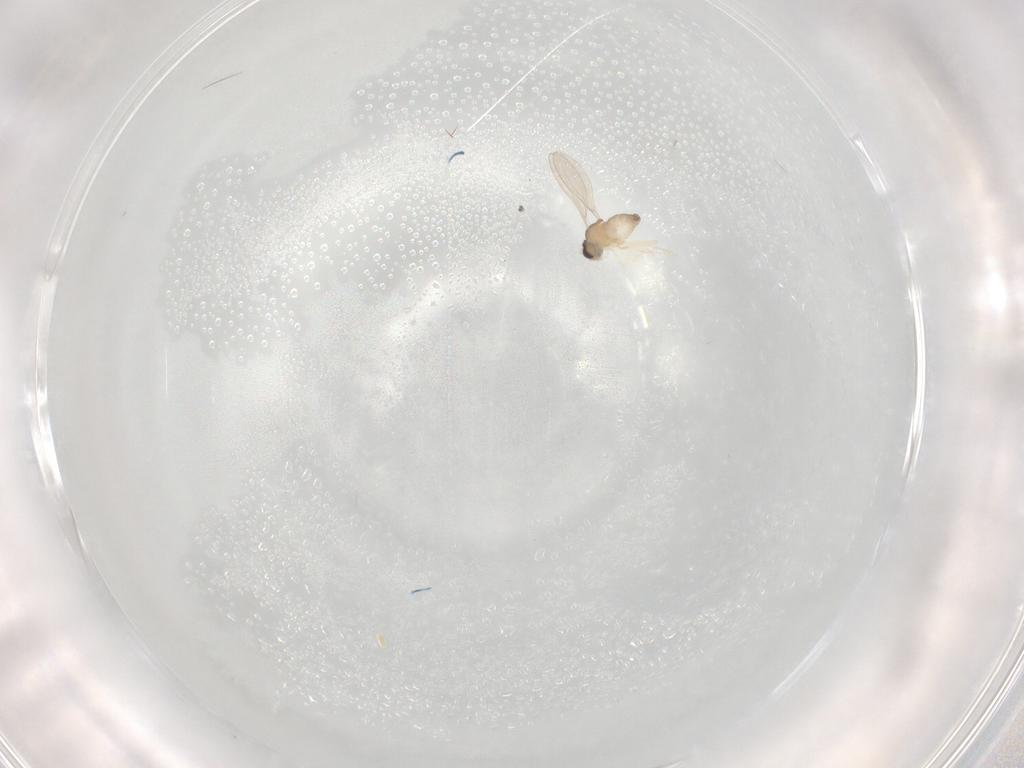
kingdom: Animalia
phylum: Arthropoda
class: Insecta
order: Diptera
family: Cecidomyiidae
